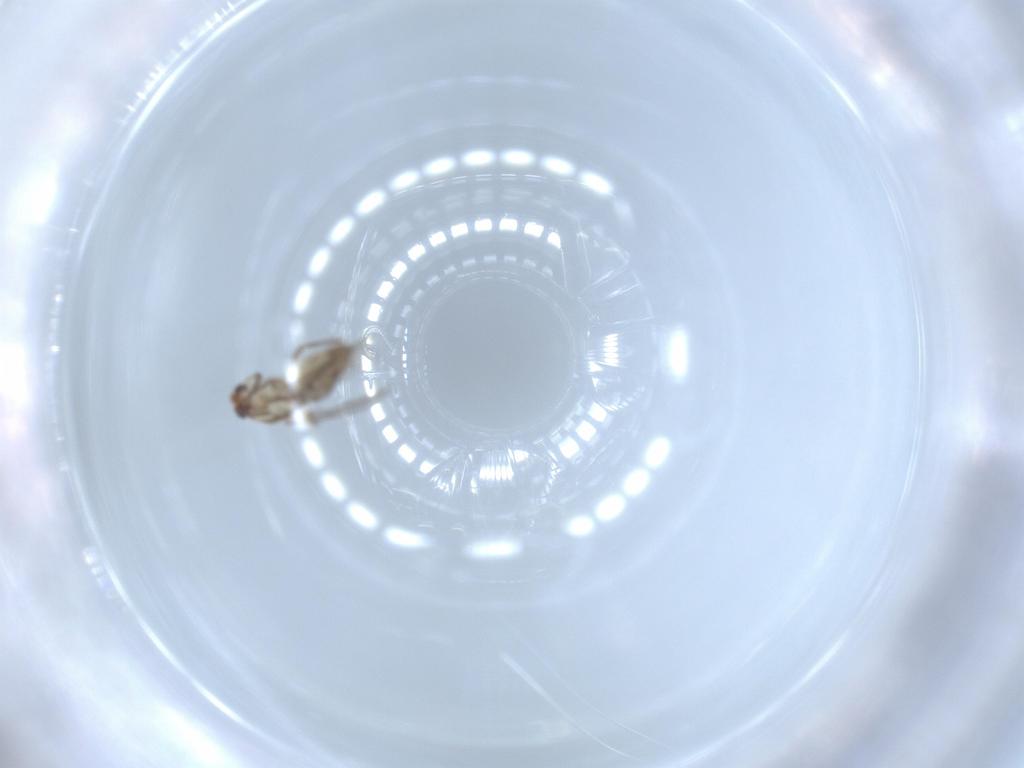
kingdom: Animalia
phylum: Arthropoda
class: Insecta
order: Diptera
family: Chironomidae
